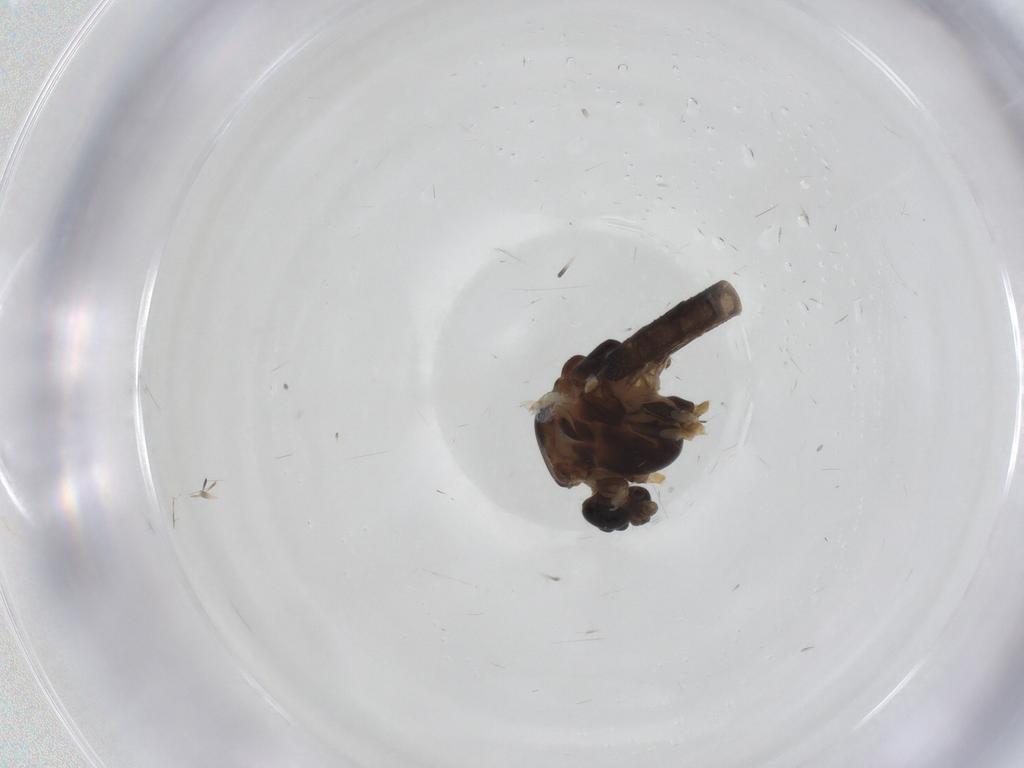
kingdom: Animalia
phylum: Arthropoda
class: Insecta
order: Diptera
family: Chironomidae
